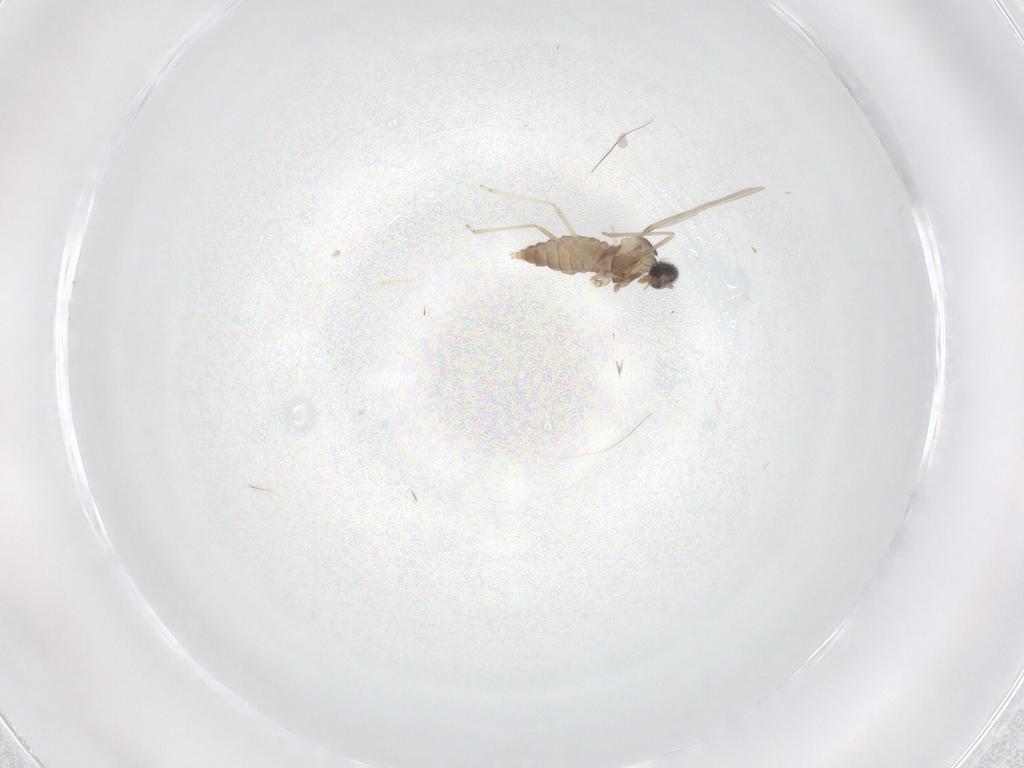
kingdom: Animalia
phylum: Arthropoda
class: Insecta
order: Diptera
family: Cecidomyiidae
